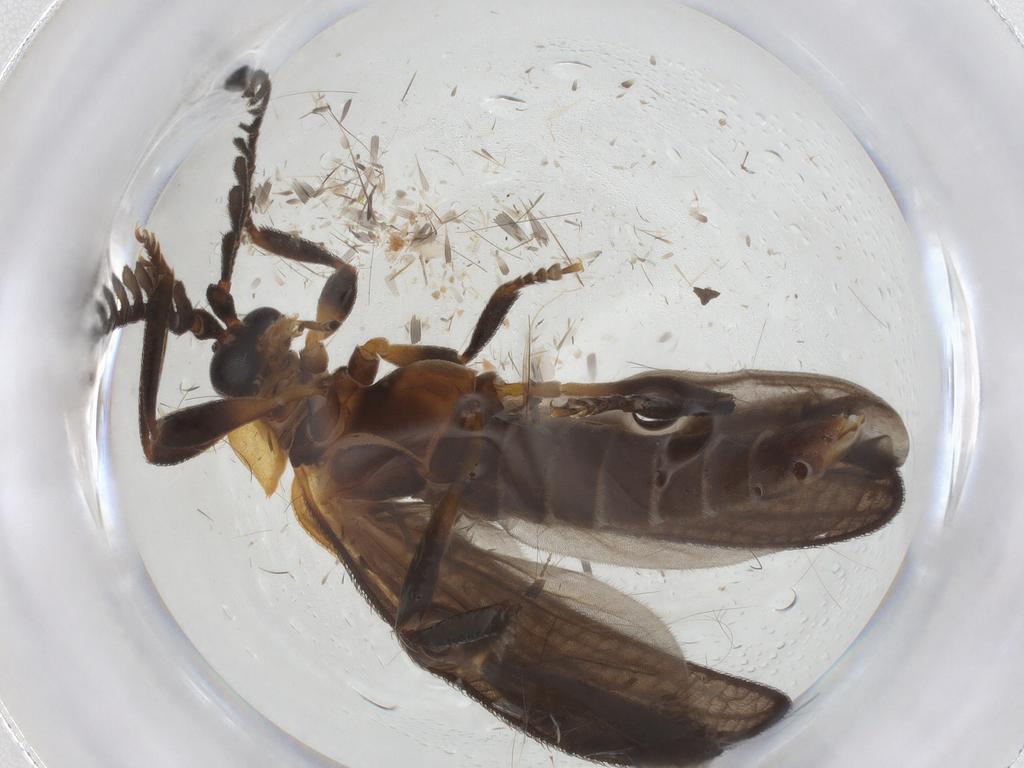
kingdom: Animalia
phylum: Arthropoda
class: Insecta
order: Coleoptera
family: Lycidae
